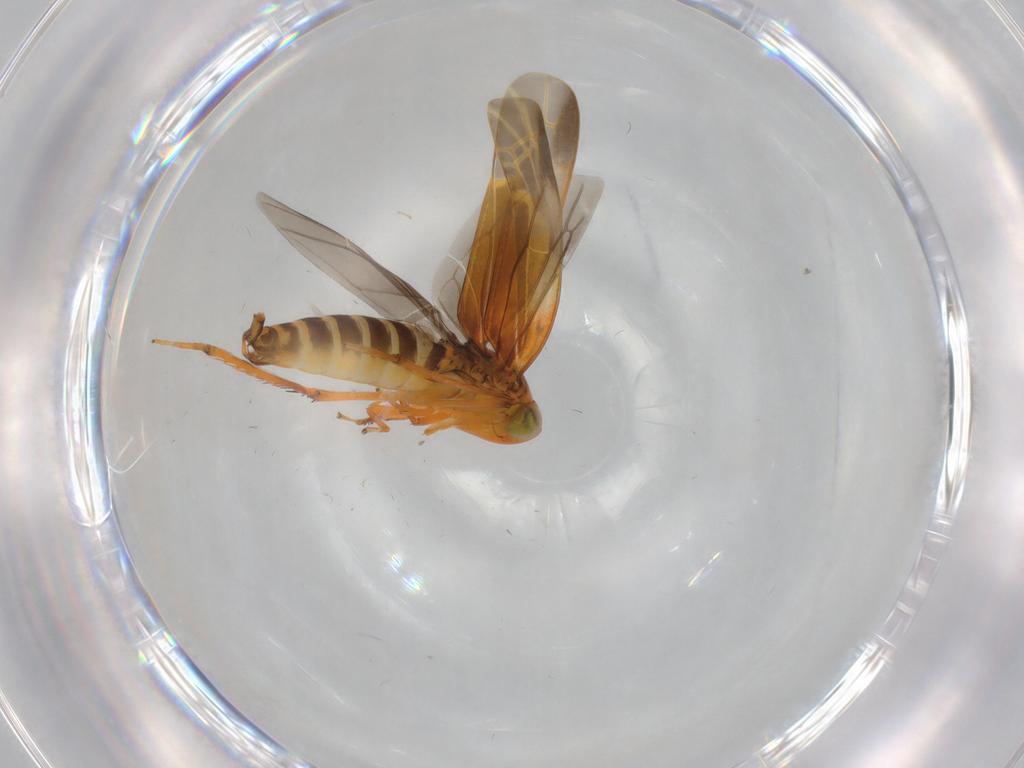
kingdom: Animalia
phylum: Arthropoda
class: Insecta
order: Hemiptera
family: Cicadellidae
